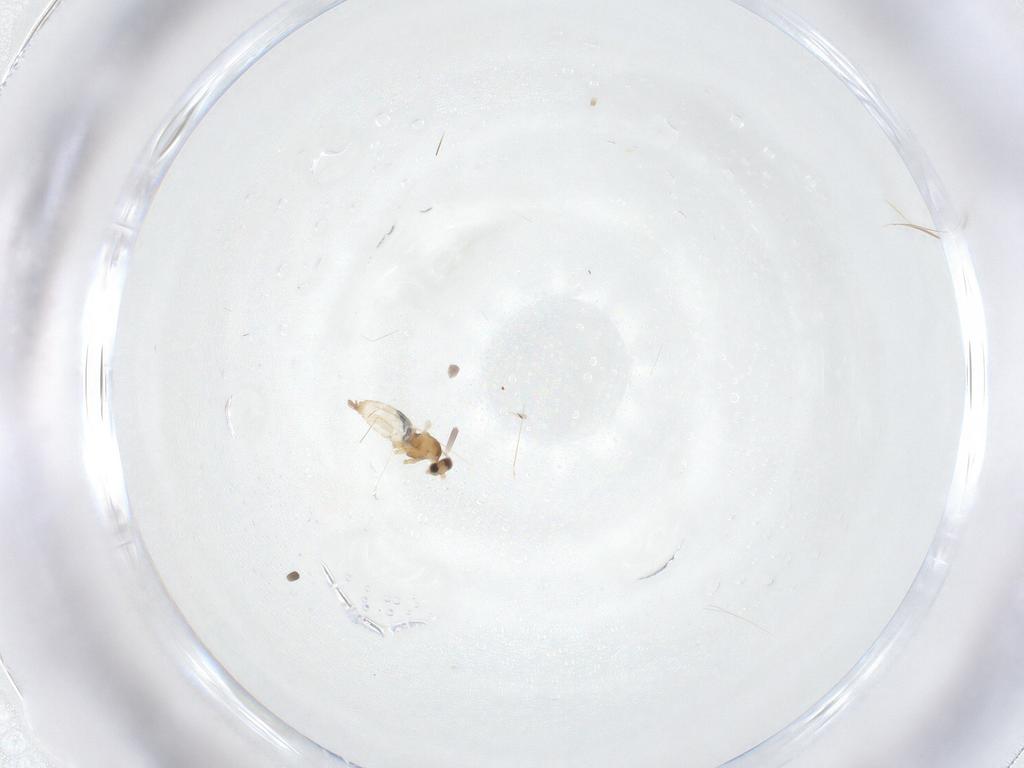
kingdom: Animalia
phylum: Arthropoda
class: Insecta
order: Diptera
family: Cecidomyiidae
